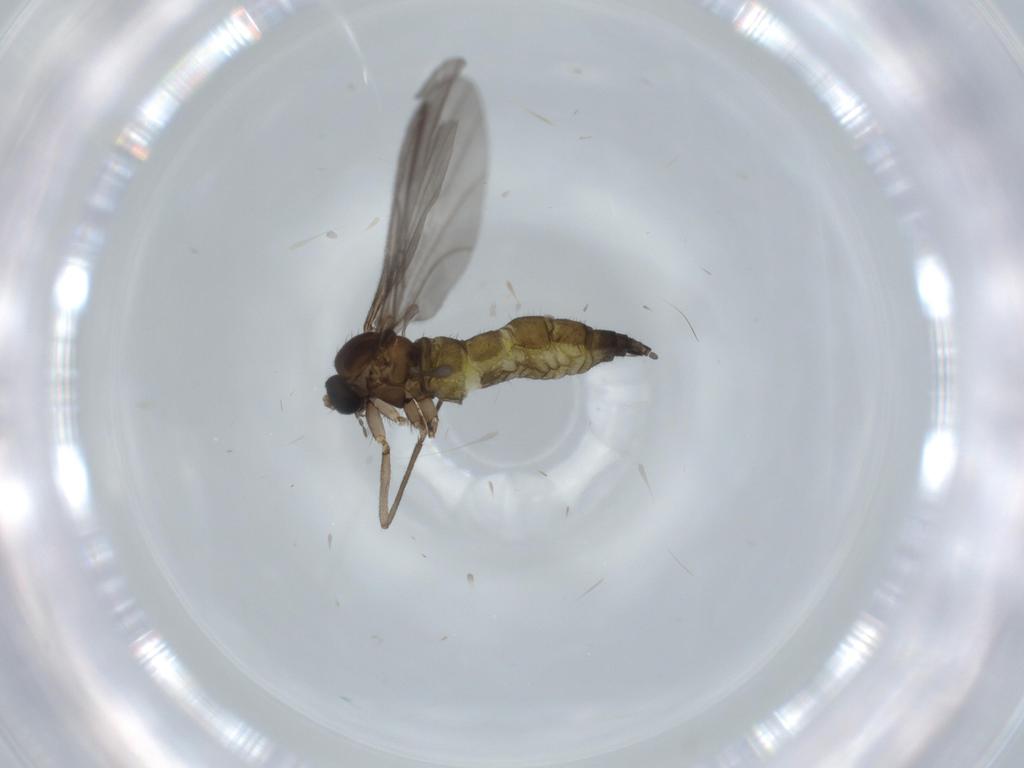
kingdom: Animalia
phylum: Arthropoda
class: Insecta
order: Diptera
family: Sciaridae
